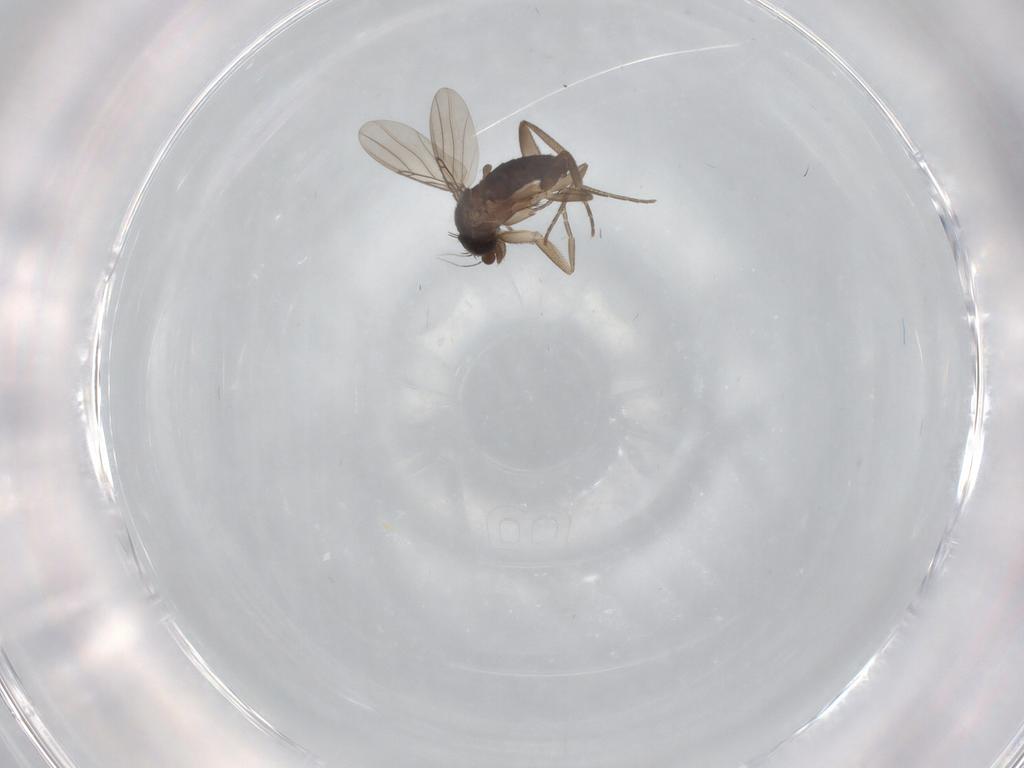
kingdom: Animalia
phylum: Arthropoda
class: Insecta
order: Diptera
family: Phoridae
